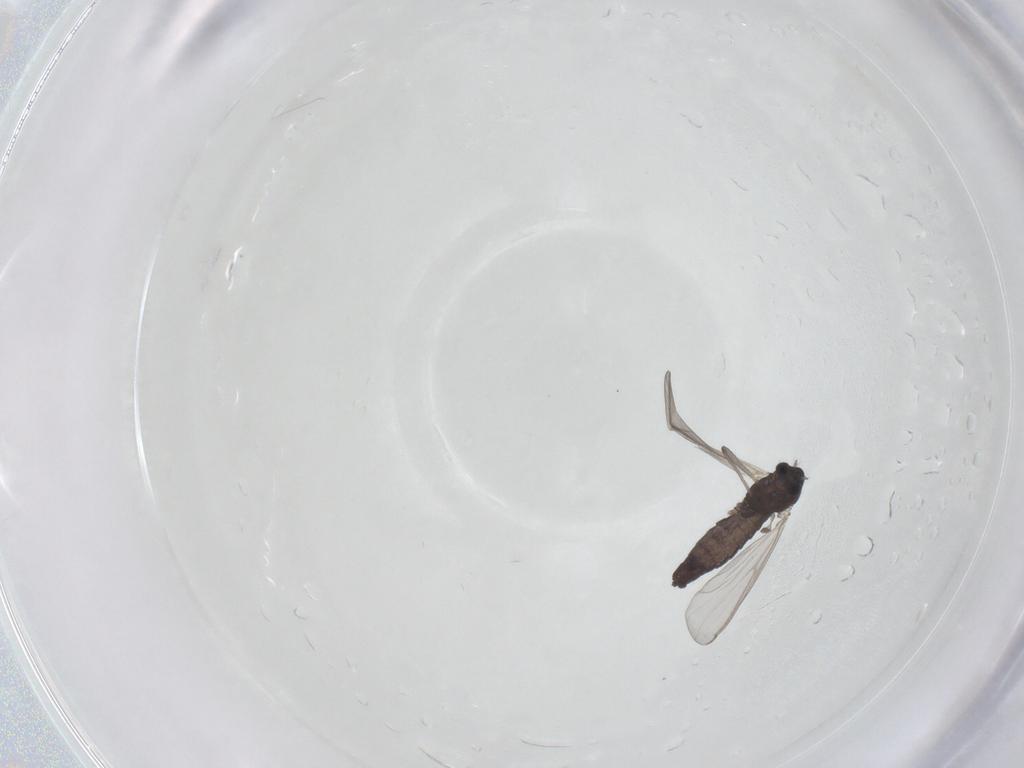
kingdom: Animalia
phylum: Arthropoda
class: Insecta
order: Diptera
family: Chironomidae
